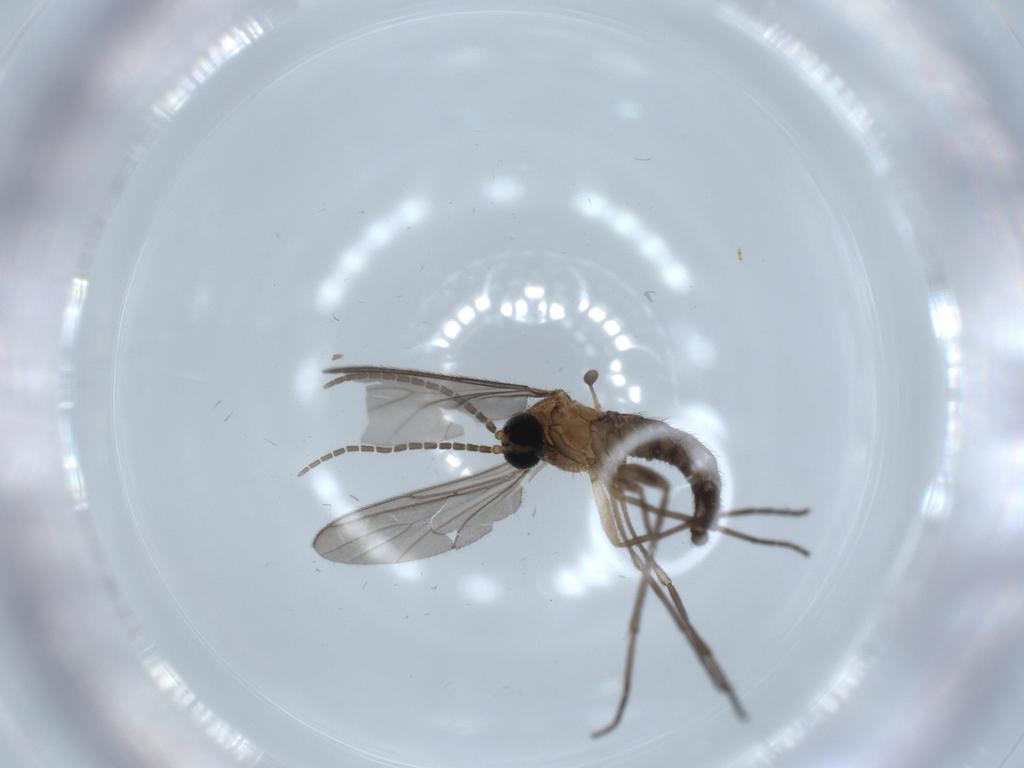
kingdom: Animalia
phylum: Arthropoda
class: Insecta
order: Diptera
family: Sciaridae
